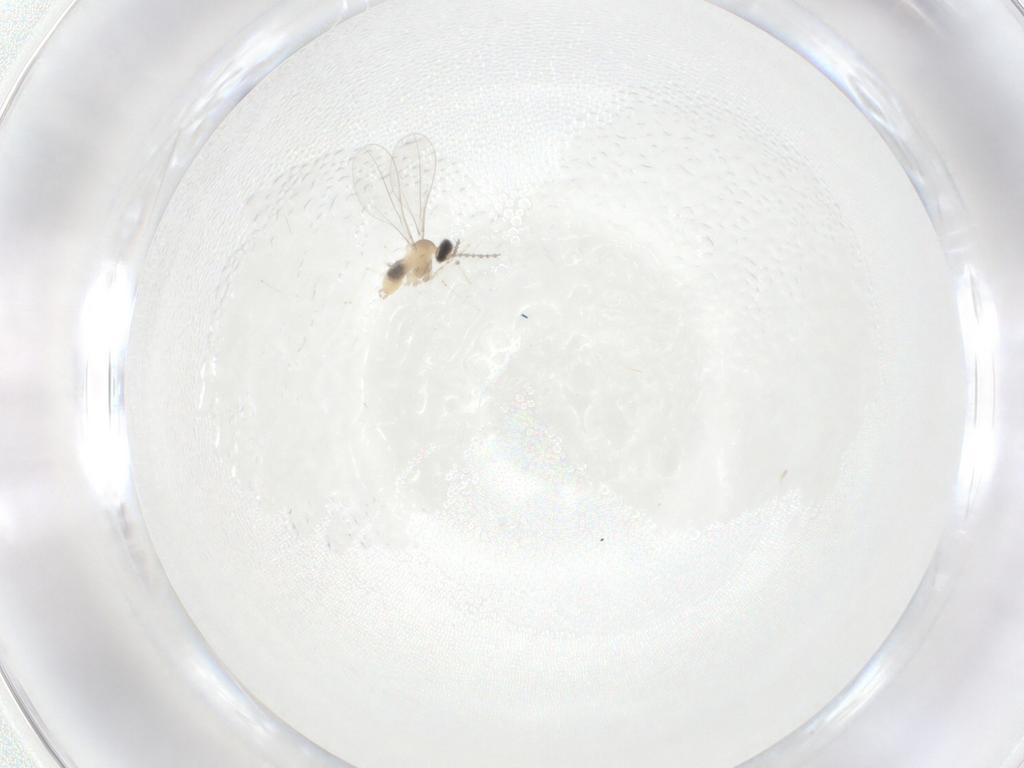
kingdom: Animalia
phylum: Arthropoda
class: Insecta
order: Diptera
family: Cecidomyiidae
